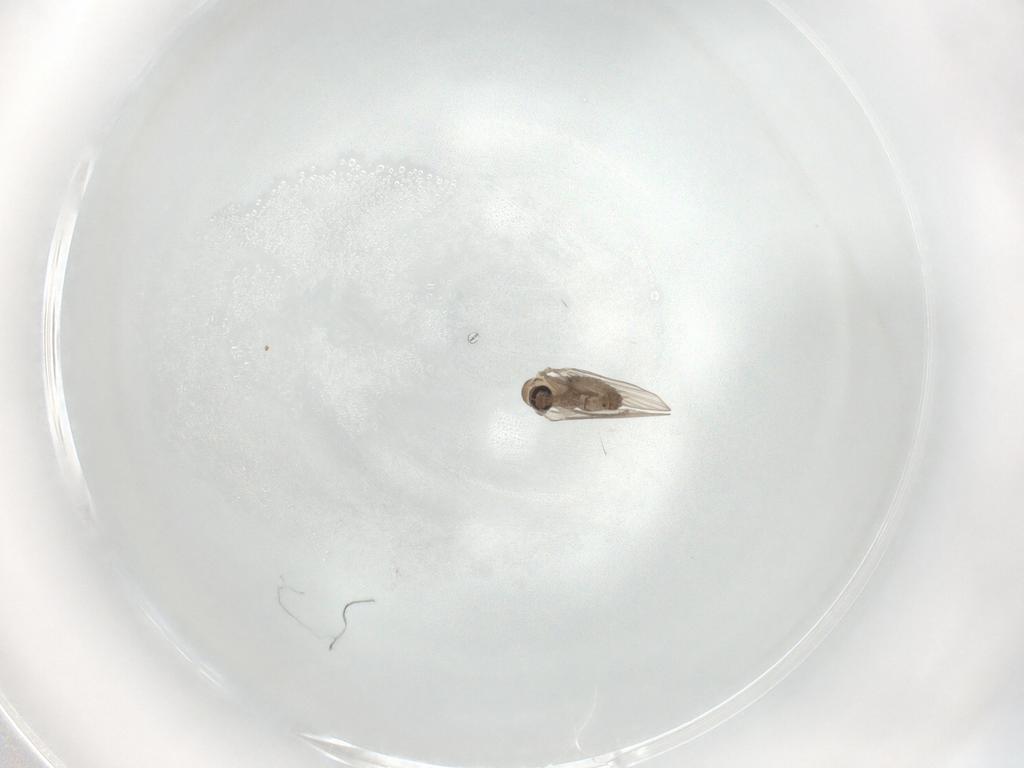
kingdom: Animalia
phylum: Arthropoda
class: Insecta
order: Diptera
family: Psychodidae
